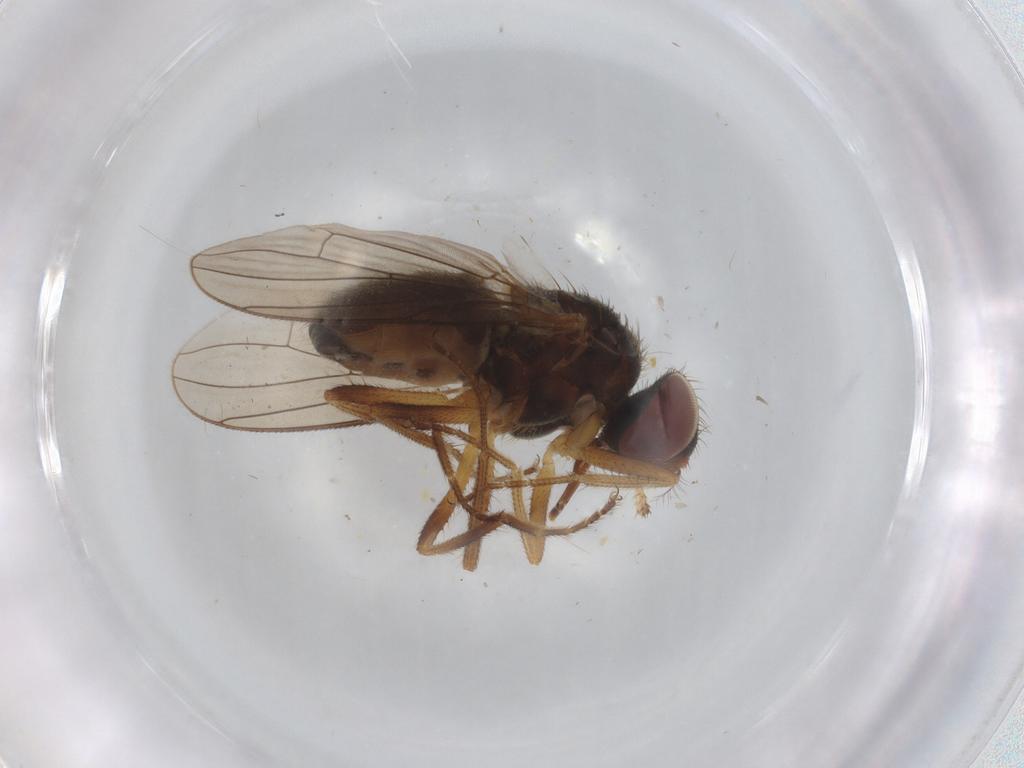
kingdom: Animalia
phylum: Arthropoda
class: Insecta
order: Diptera
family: Muscidae
